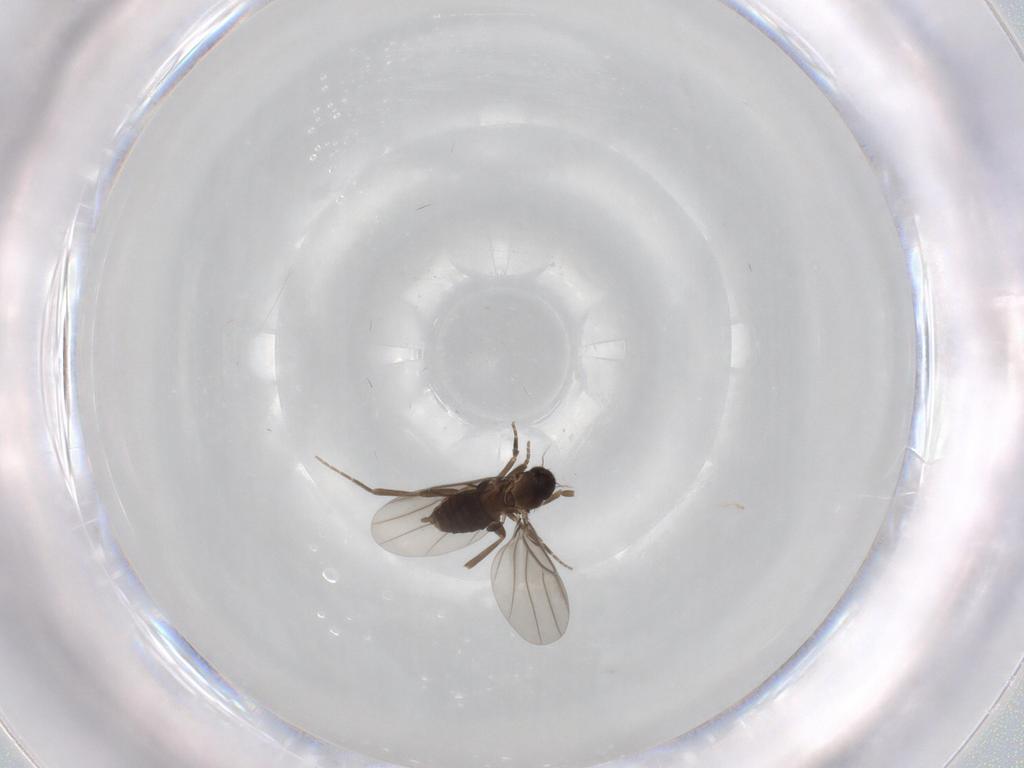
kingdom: Animalia
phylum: Arthropoda
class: Insecta
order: Diptera
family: Phoridae
